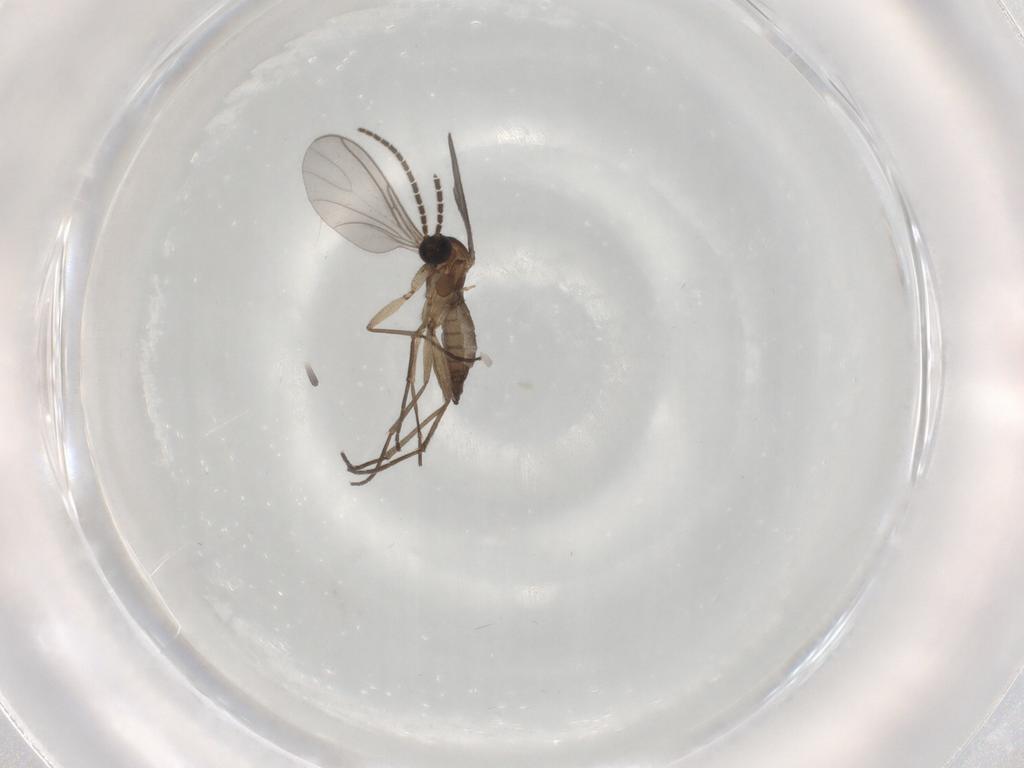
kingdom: Animalia
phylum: Arthropoda
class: Insecta
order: Diptera
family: Sciaridae
